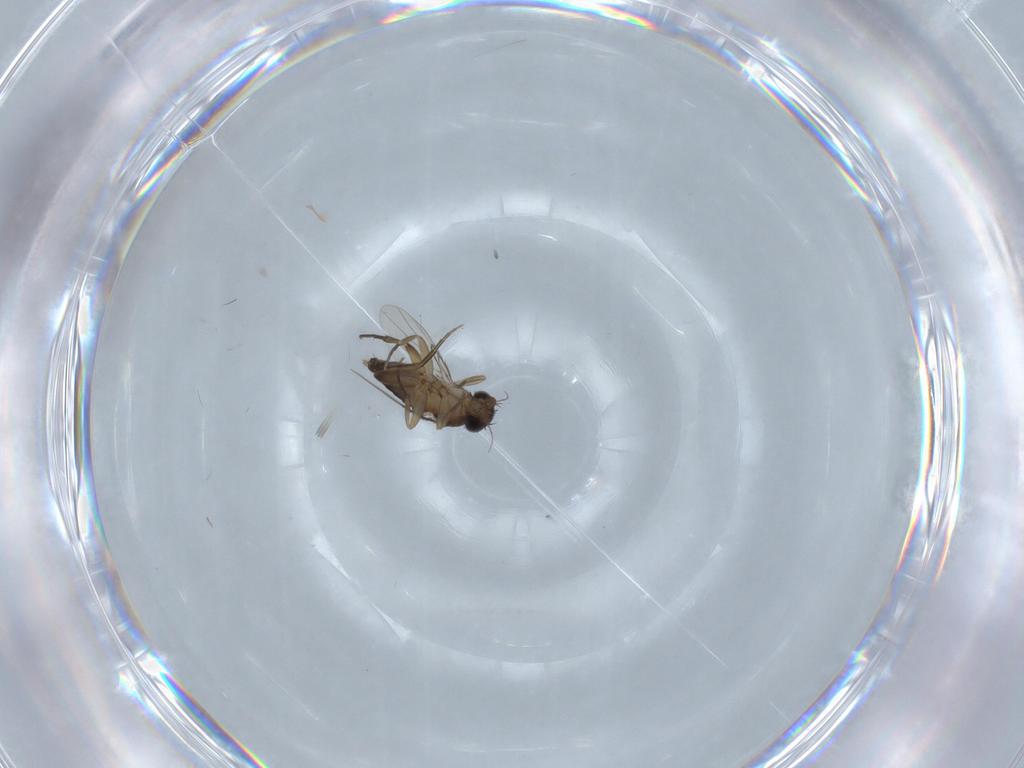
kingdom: Animalia
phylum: Arthropoda
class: Insecta
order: Diptera
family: Limoniidae
